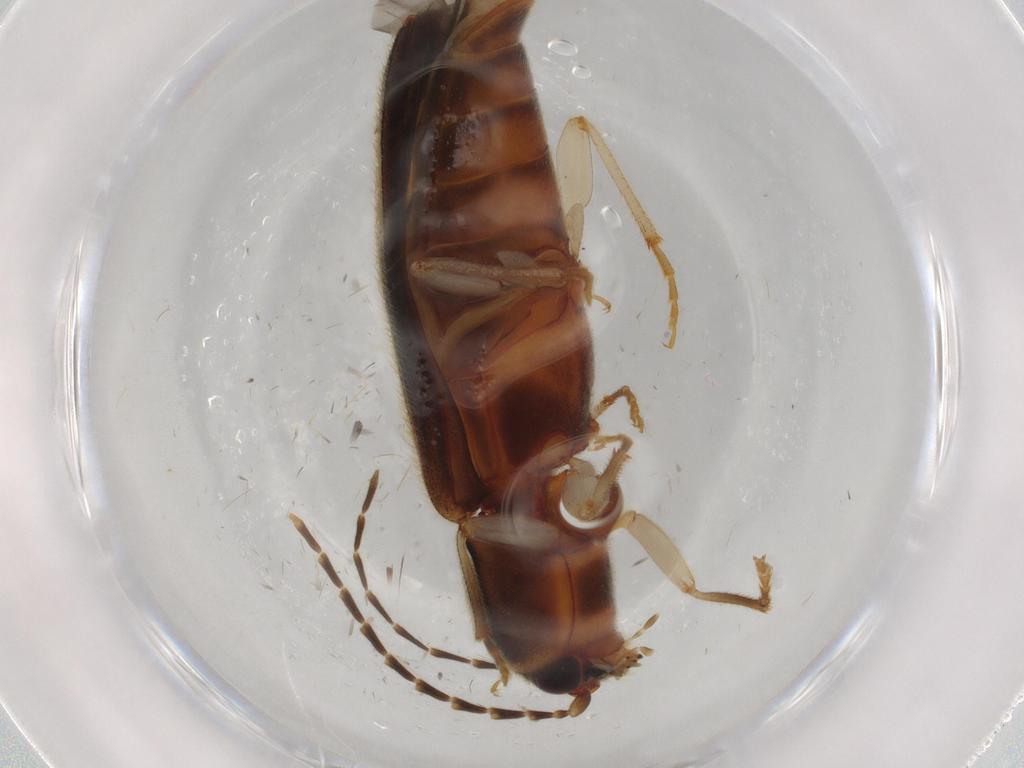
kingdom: Animalia
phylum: Arthropoda
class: Insecta
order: Coleoptera
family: Elateridae
